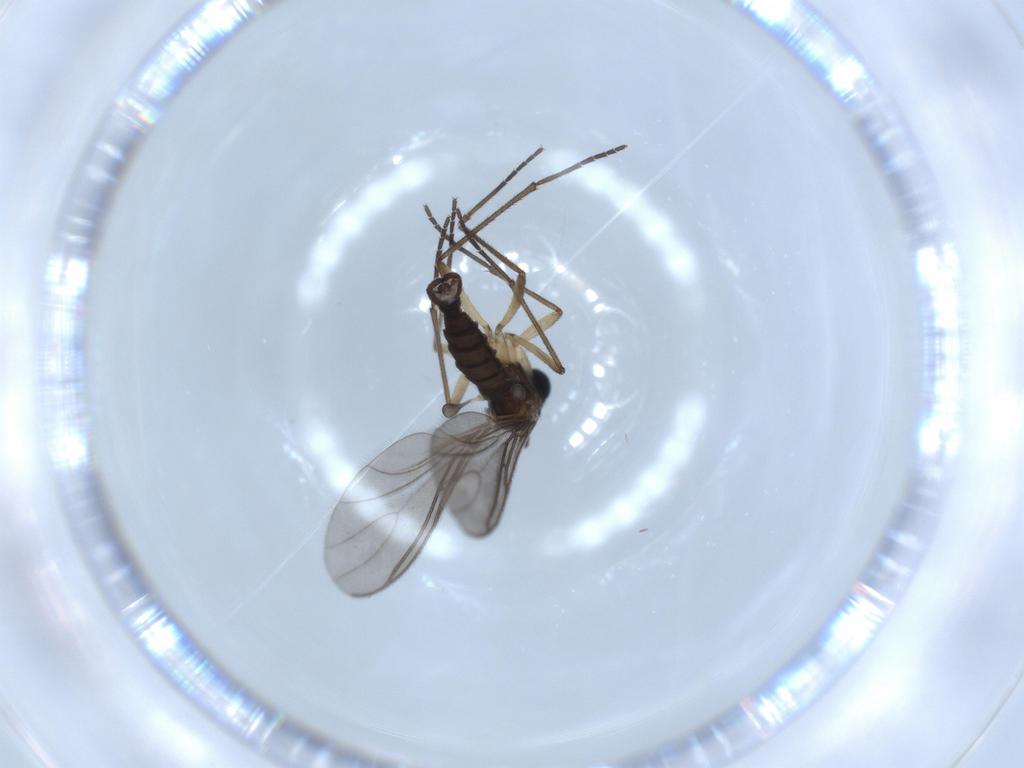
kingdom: Animalia
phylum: Arthropoda
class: Insecta
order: Diptera
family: Sciaridae
